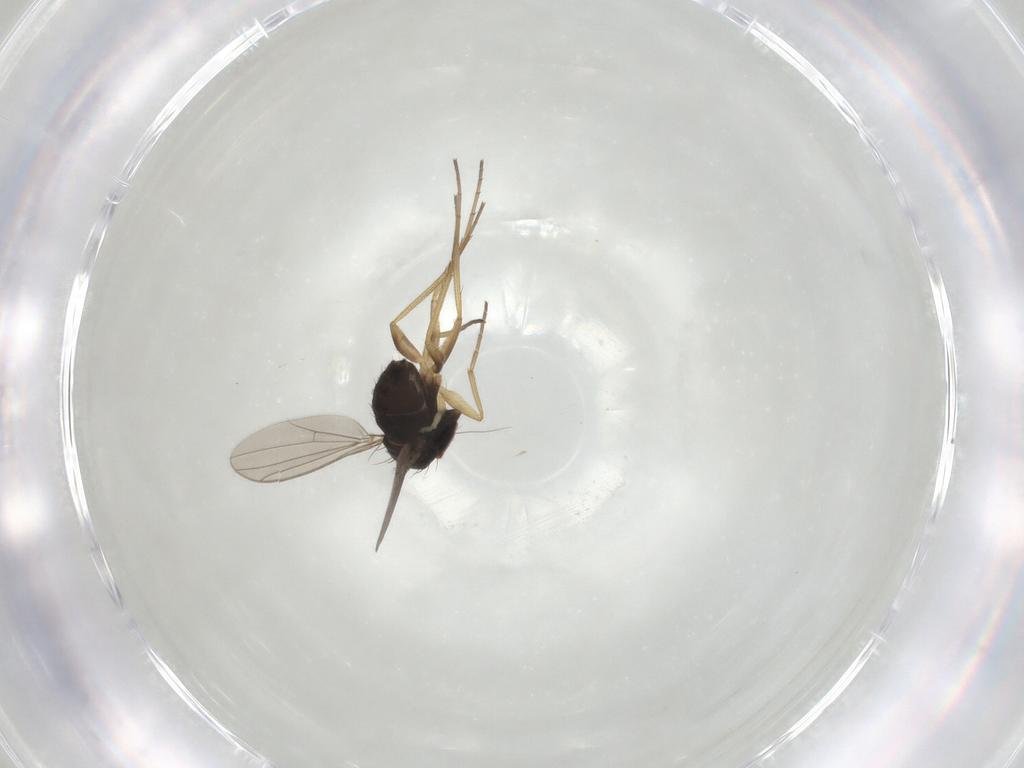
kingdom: Animalia
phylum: Arthropoda
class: Insecta
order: Diptera
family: Dolichopodidae
